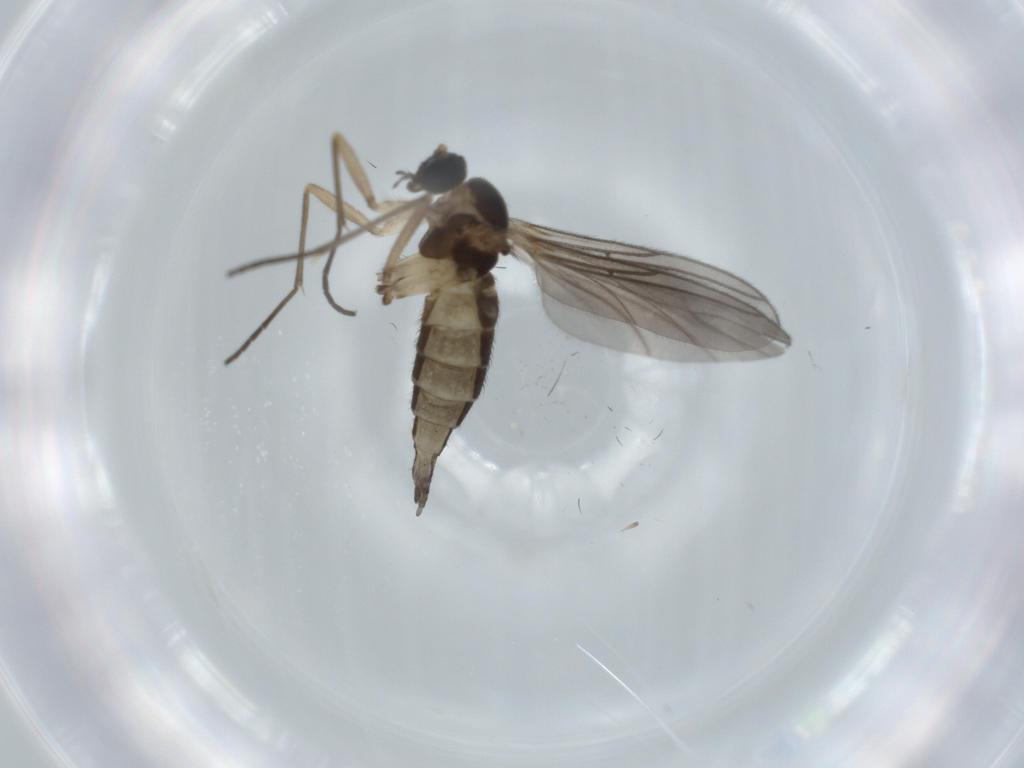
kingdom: Animalia
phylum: Arthropoda
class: Insecta
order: Diptera
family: Sciaridae
